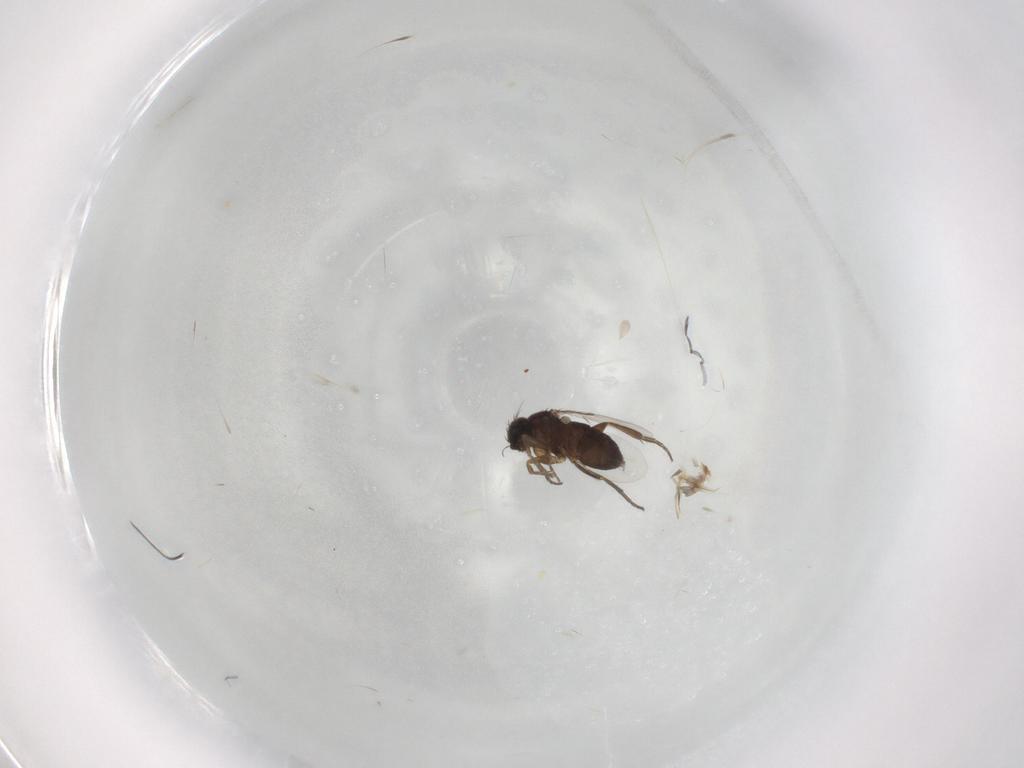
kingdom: Animalia
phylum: Arthropoda
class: Insecta
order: Diptera
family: Phoridae
